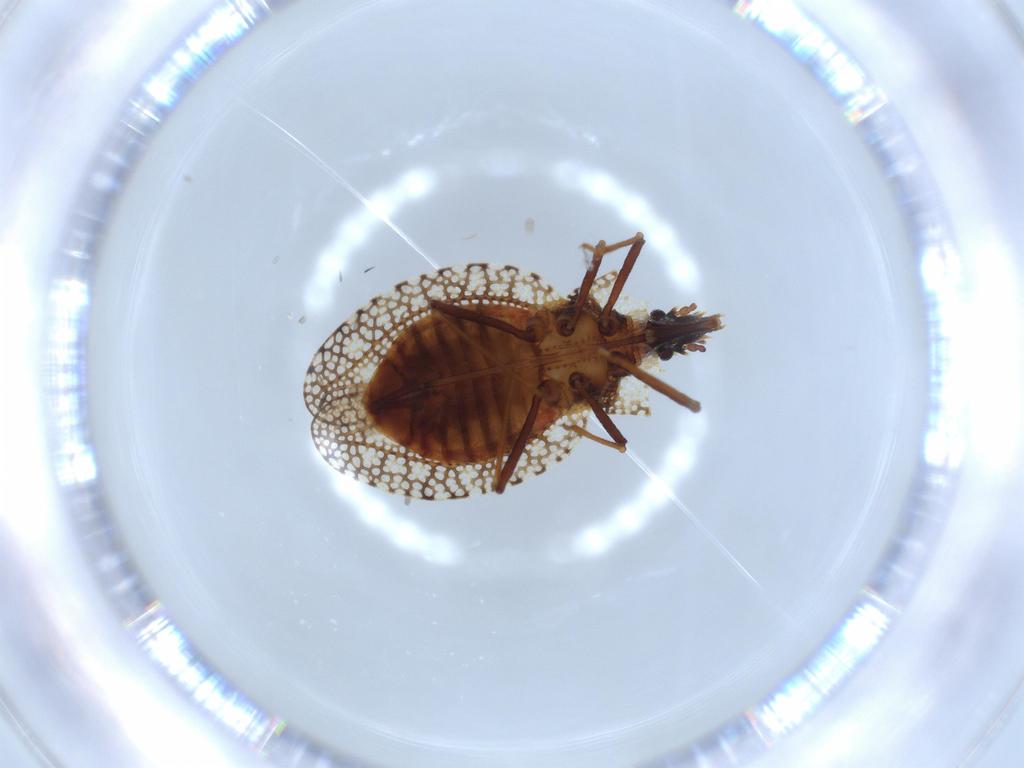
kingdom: Animalia
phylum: Arthropoda
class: Insecta
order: Hemiptera
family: Tingidae
